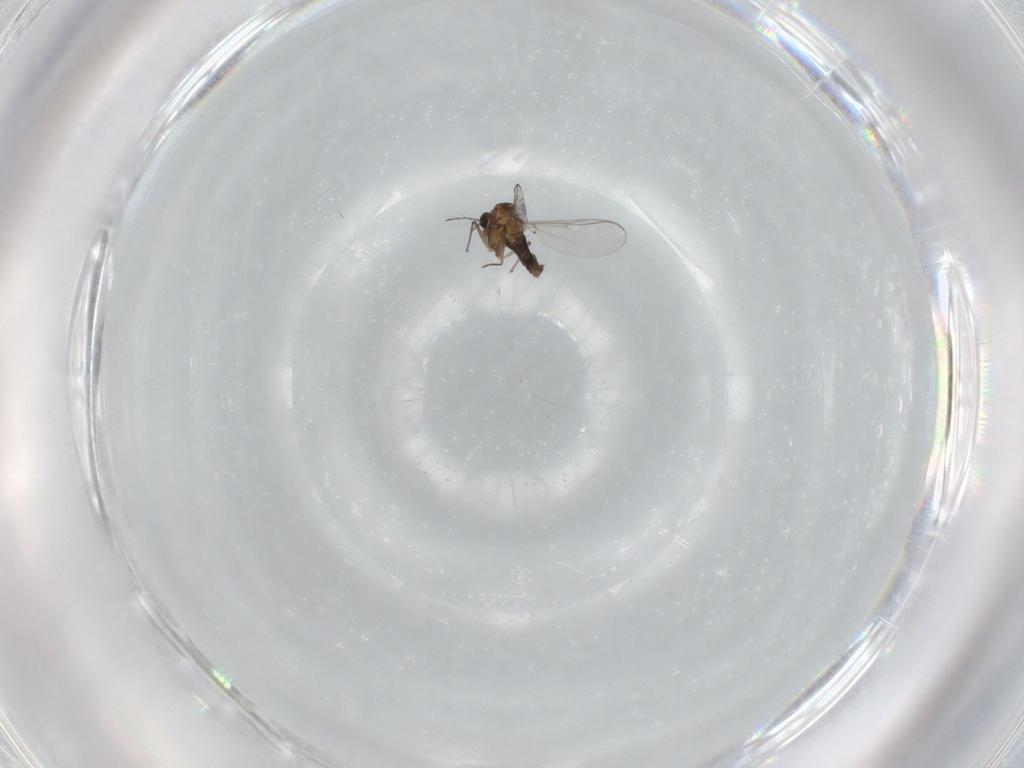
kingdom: Animalia
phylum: Arthropoda
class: Insecta
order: Diptera
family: Chironomidae
